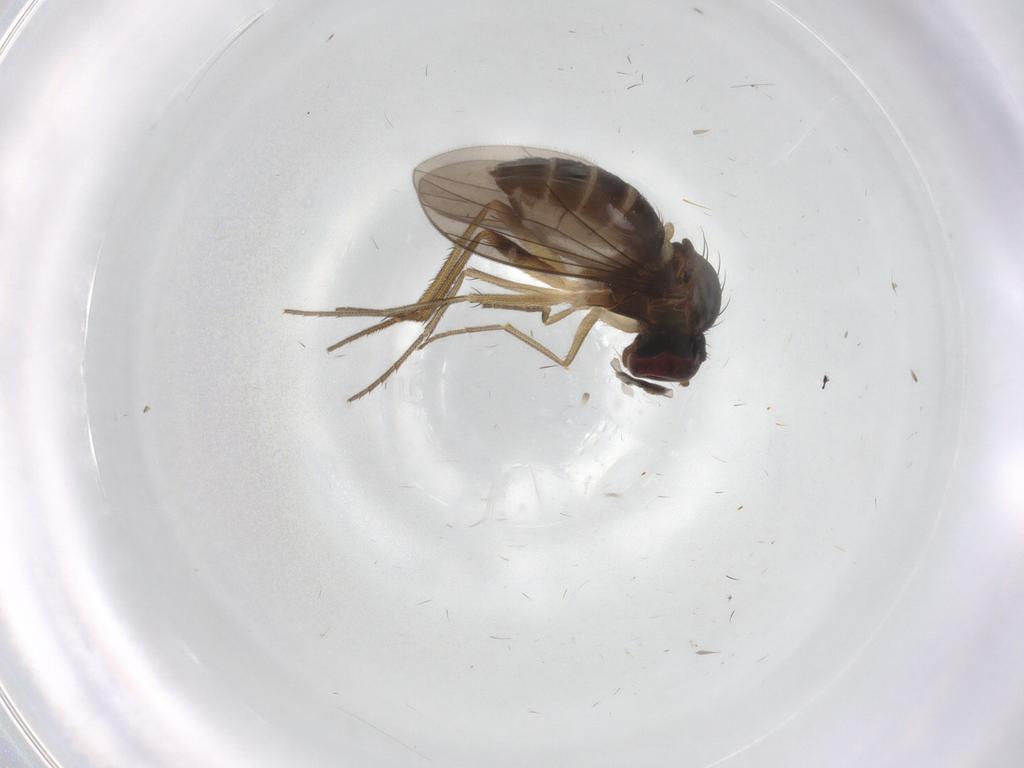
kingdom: Animalia
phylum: Arthropoda
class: Insecta
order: Diptera
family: Dolichopodidae
